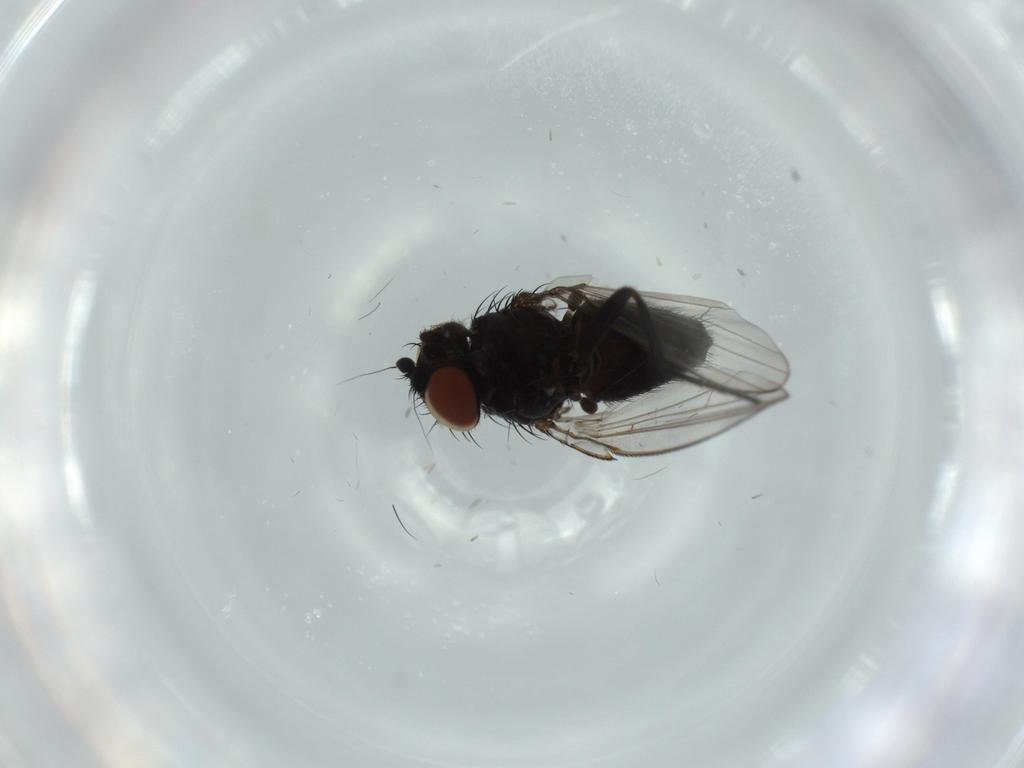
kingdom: Animalia
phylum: Arthropoda
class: Insecta
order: Diptera
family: Milichiidae
